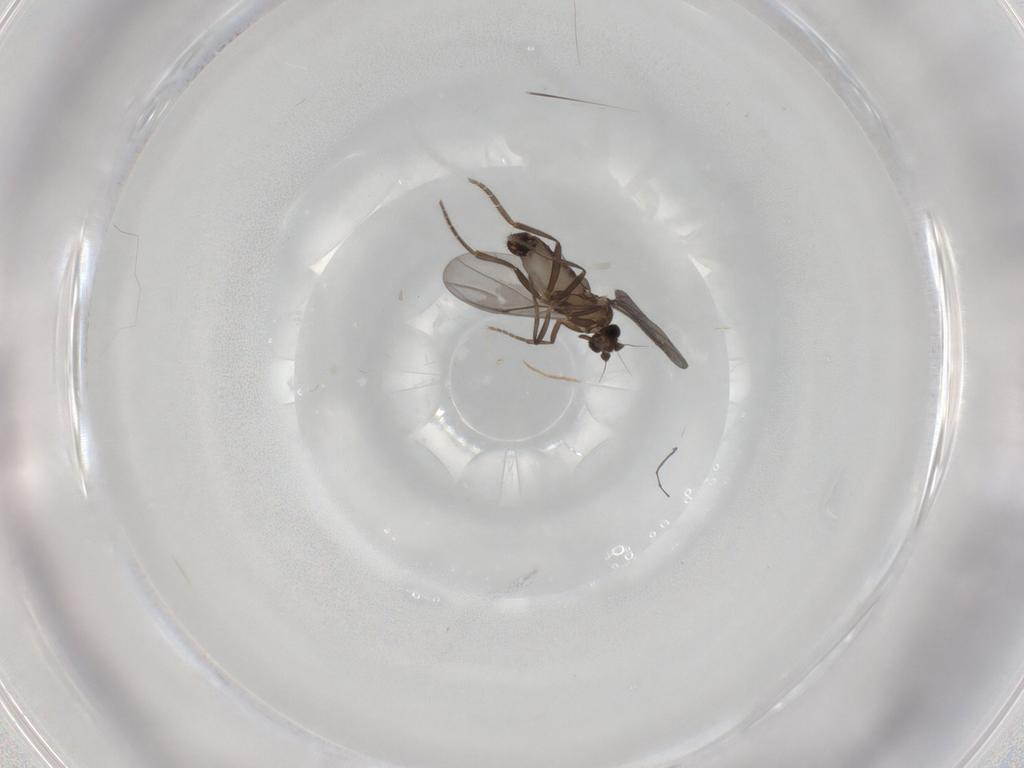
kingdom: Animalia
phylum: Arthropoda
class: Insecta
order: Diptera
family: Phoridae
